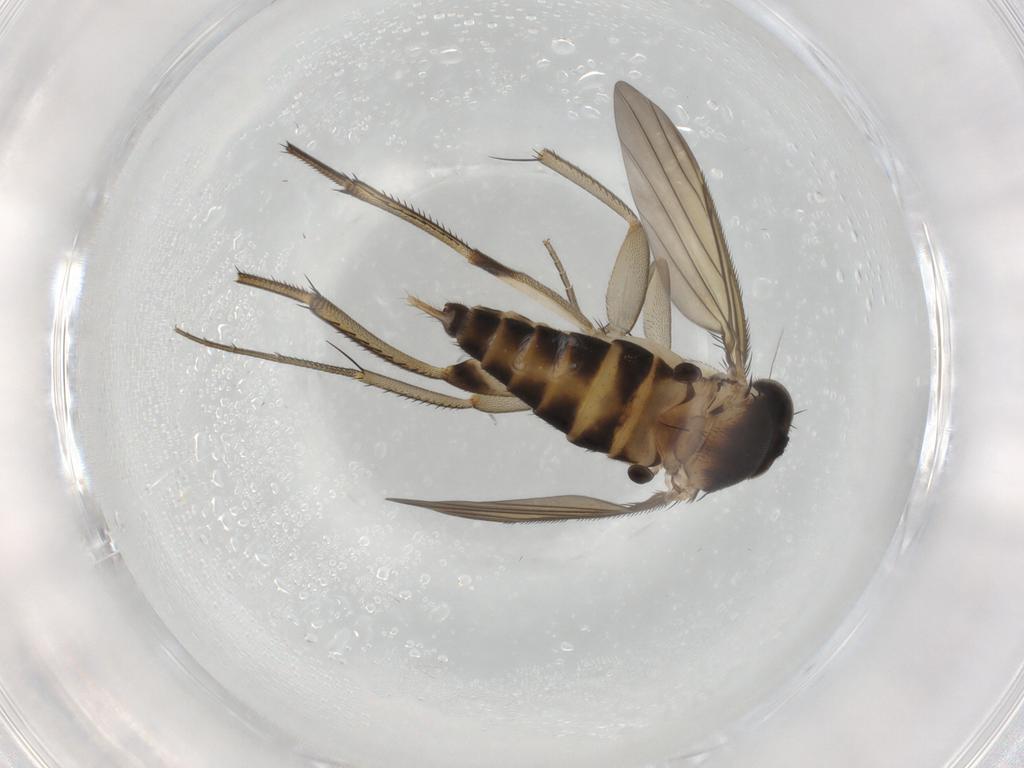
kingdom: Animalia
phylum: Arthropoda
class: Insecta
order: Diptera
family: Phoridae
